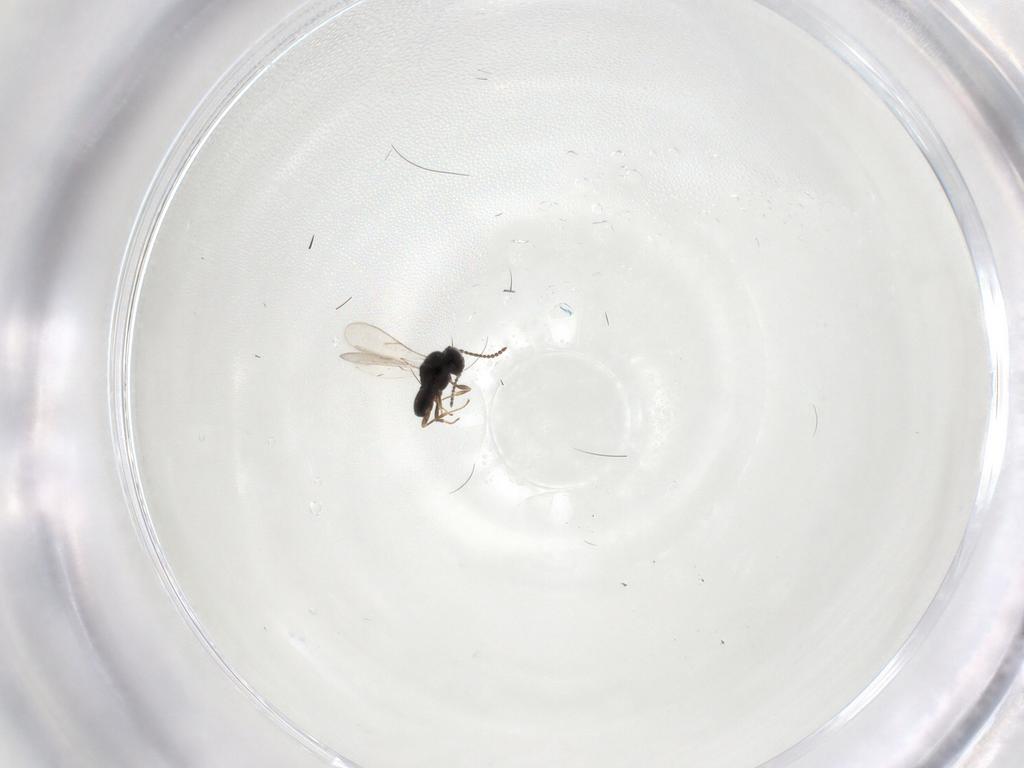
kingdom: Animalia
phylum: Arthropoda
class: Insecta
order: Hymenoptera
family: Scelionidae
